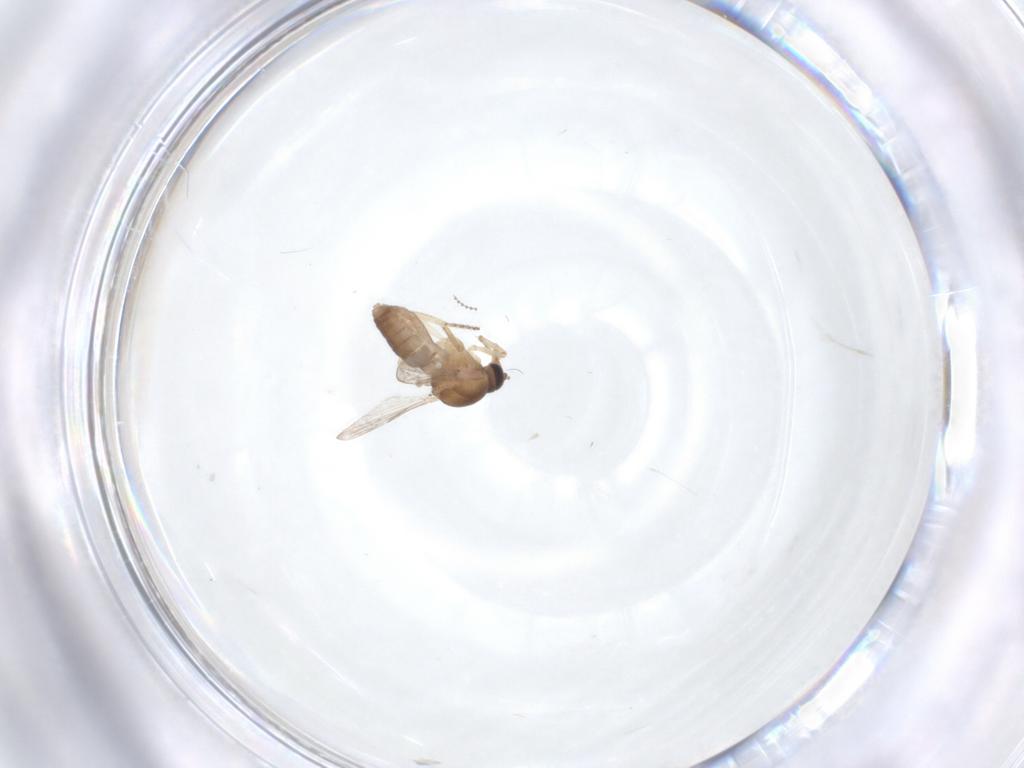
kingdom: Animalia
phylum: Arthropoda
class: Insecta
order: Diptera
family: Ceratopogonidae
